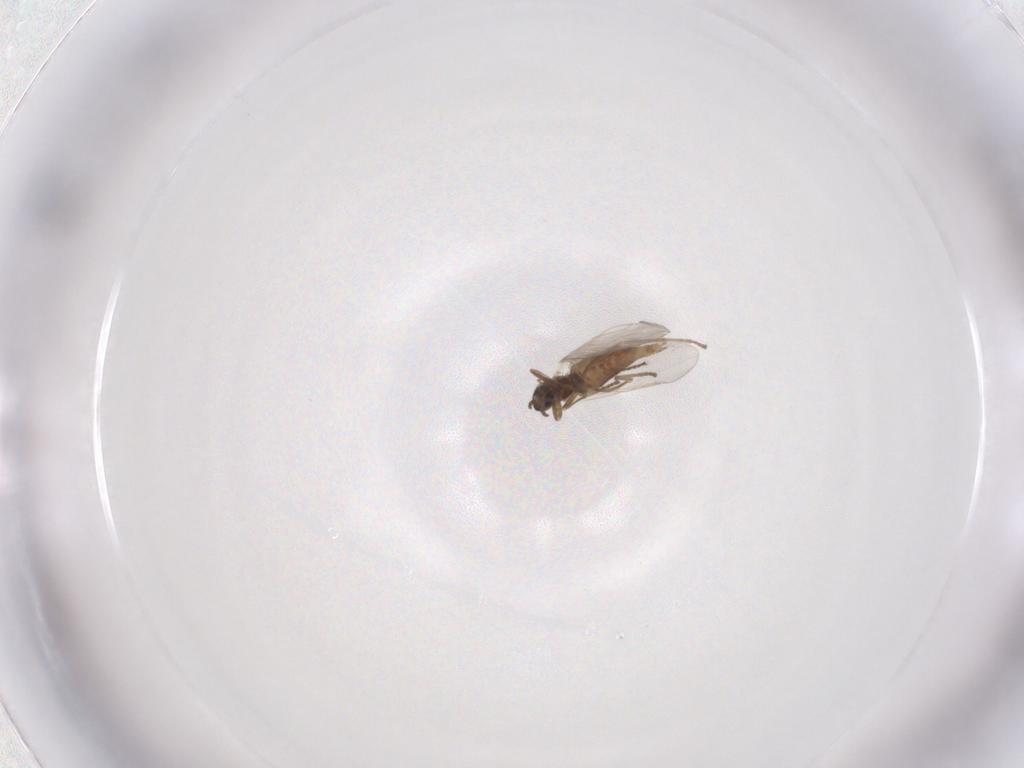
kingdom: Animalia
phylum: Arthropoda
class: Insecta
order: Diptera
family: Cecidomyiidae
